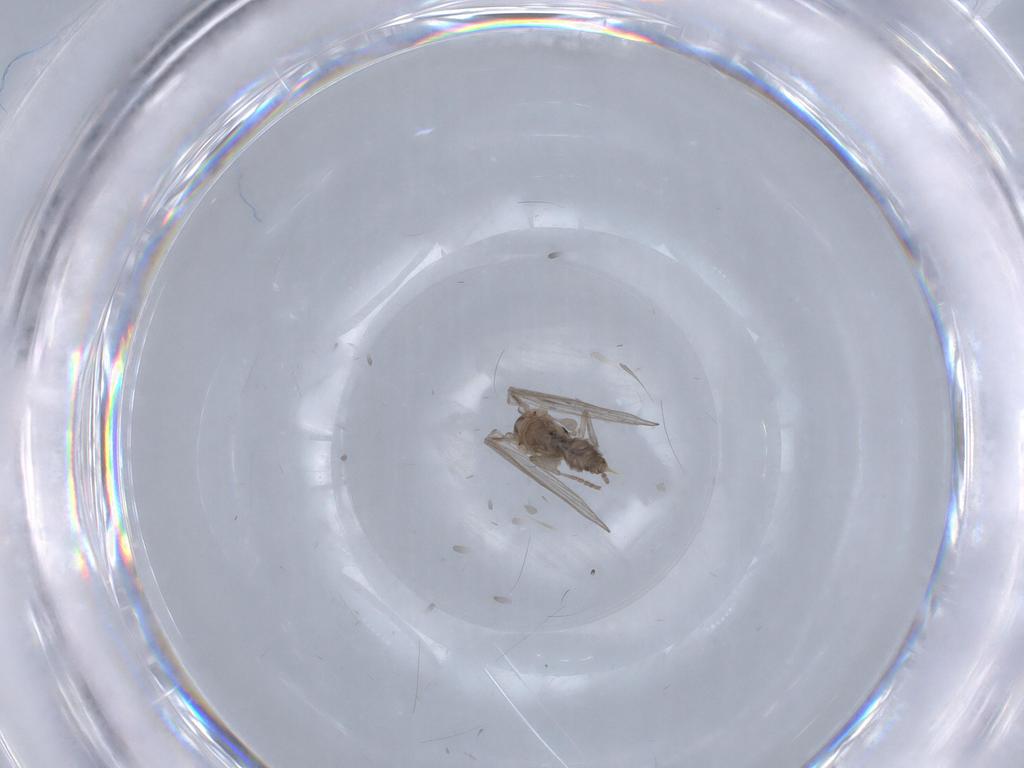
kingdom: Animalia
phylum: Arthropoda
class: Insecta
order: Diptera
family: Psychodidae
